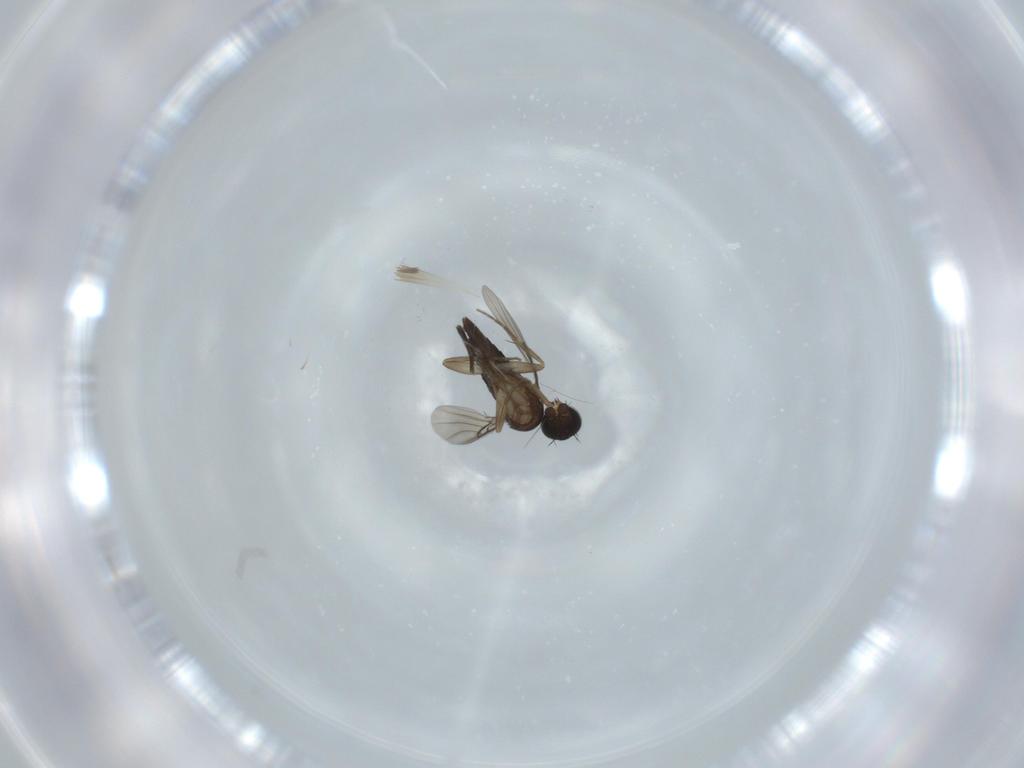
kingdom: Animalia
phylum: Arthropoda
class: Insecta
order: Diptera
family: Phoridae
